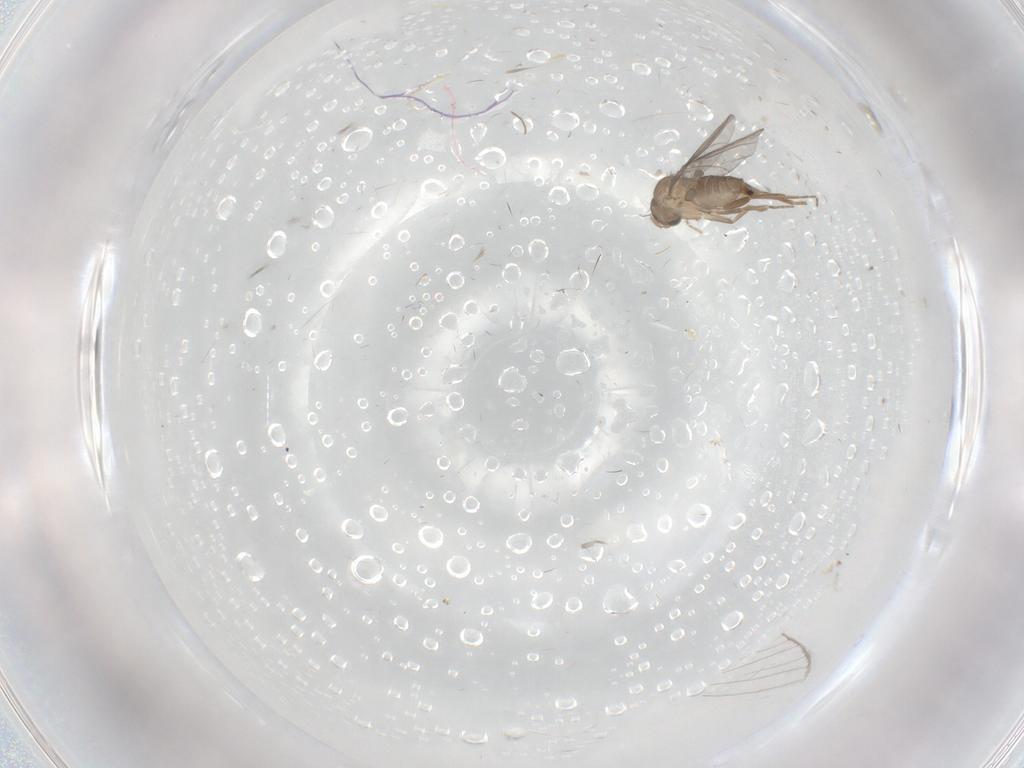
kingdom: Animalia
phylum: Arthropoda
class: Insecta
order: Diptera
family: Sciaridae
